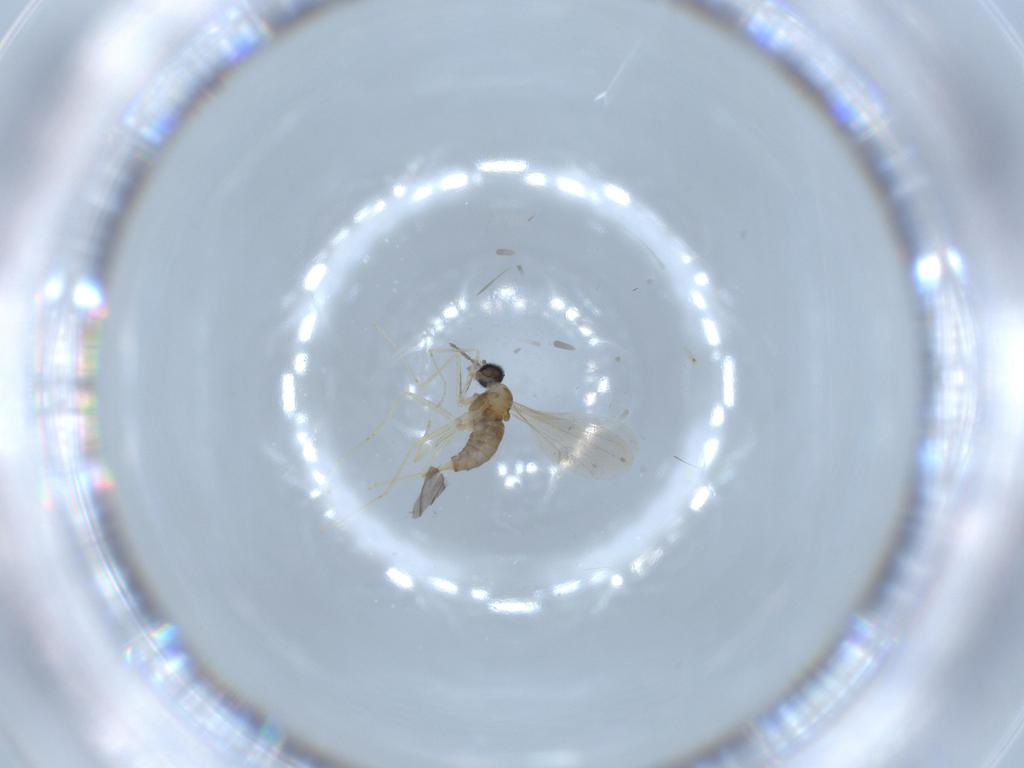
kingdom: Animalia
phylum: Arthropoda
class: Insecta
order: Diptera
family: Cecidomyiidae
